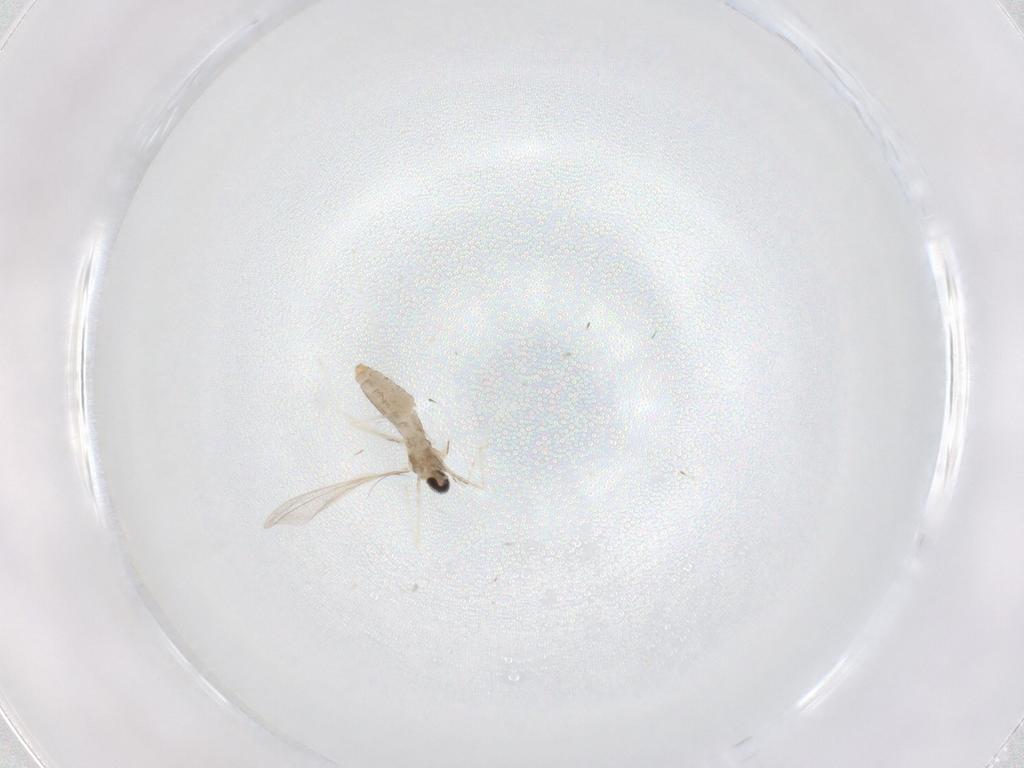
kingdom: Animalia
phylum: Arthropoda
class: Insecta
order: Diptera
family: Cecidomyiidae
